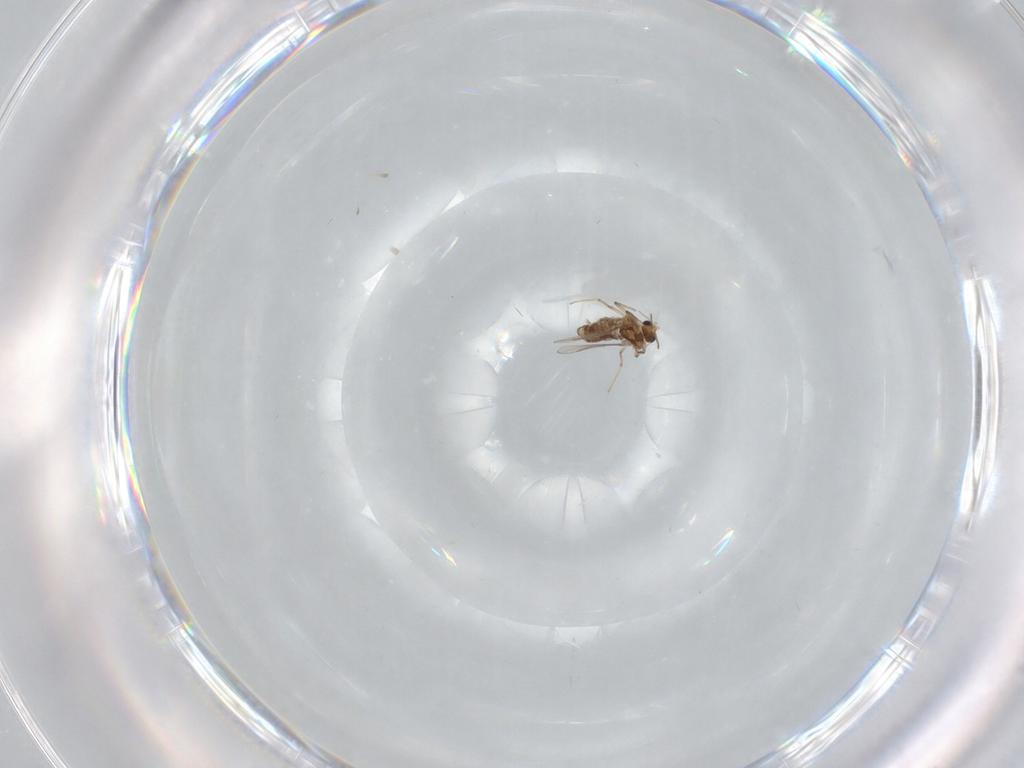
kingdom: Animalia
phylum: Arthropoda
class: Insecta
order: Diptera
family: Chironomidae
